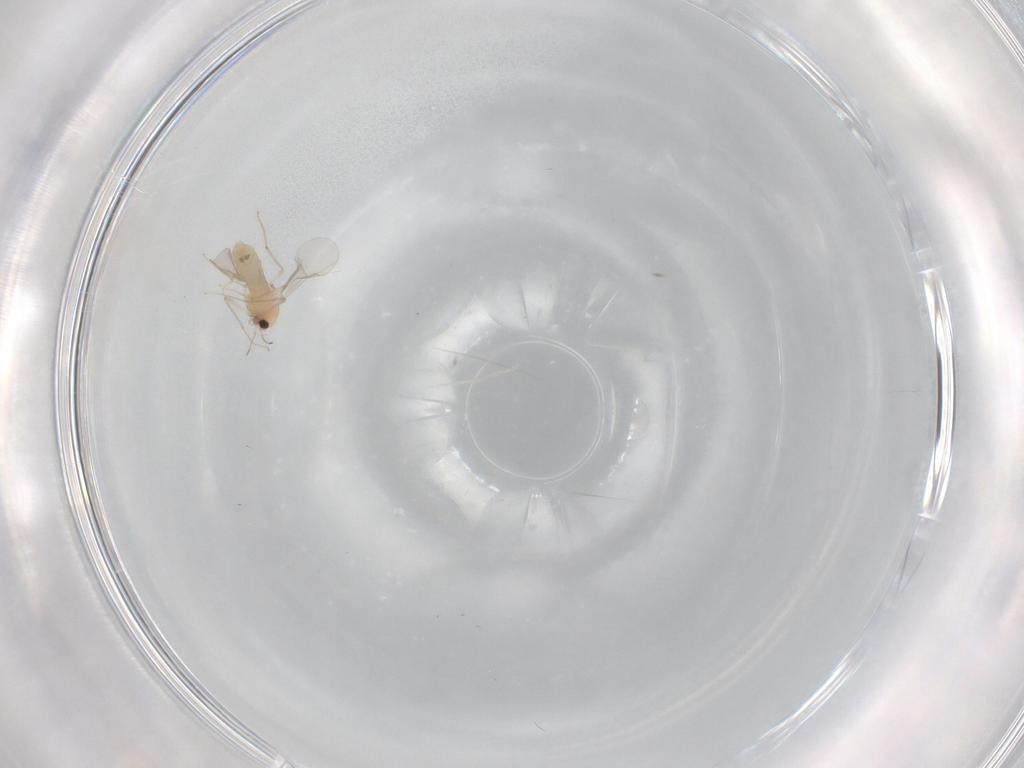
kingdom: Animalia
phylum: Arthropoda
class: Insecta
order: Diptera
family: Chironomidae
